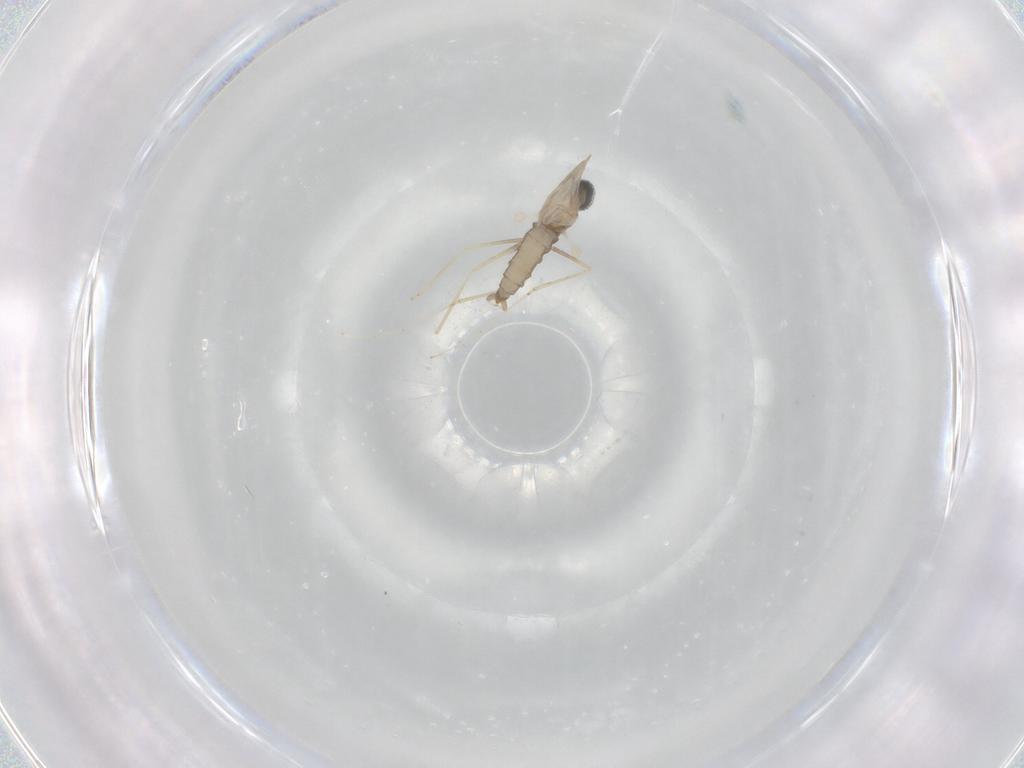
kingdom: Animalia
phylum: Arthropoda
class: Insecta
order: Diptera
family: Cecidomyiidae
